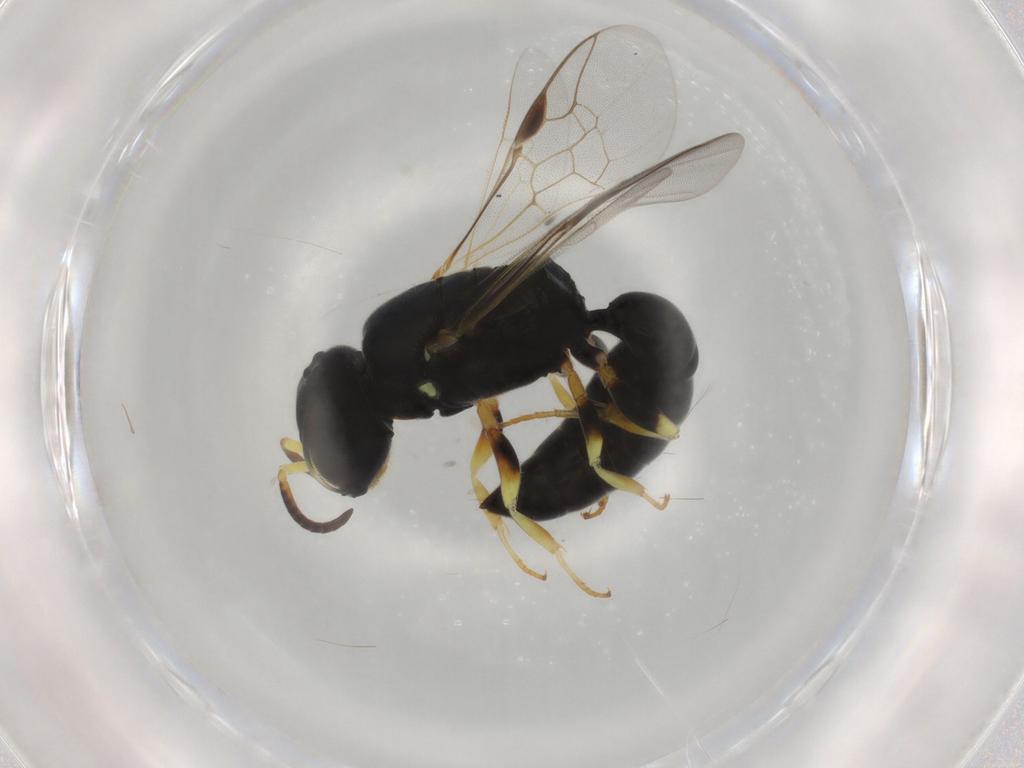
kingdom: Animalia
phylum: Arthropoda
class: Insecta
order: Hymenoptera
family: Pemphredonidae
